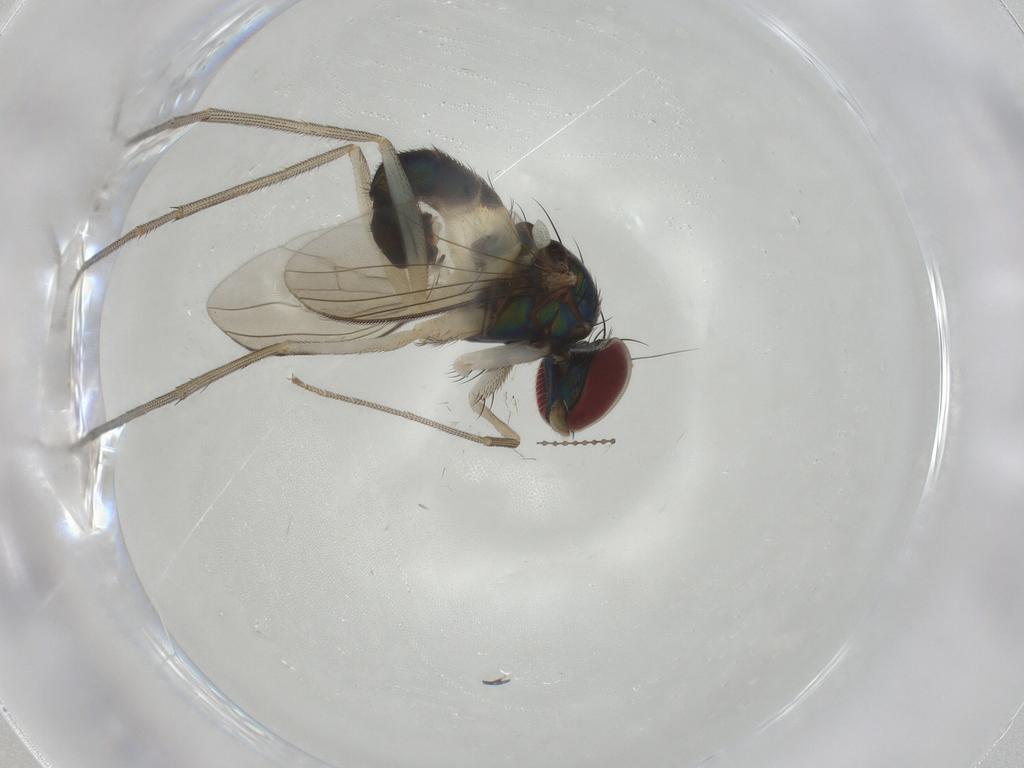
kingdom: Animalia
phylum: Arthropoda
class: Insecta
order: Diptera
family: Dolichopodidae
